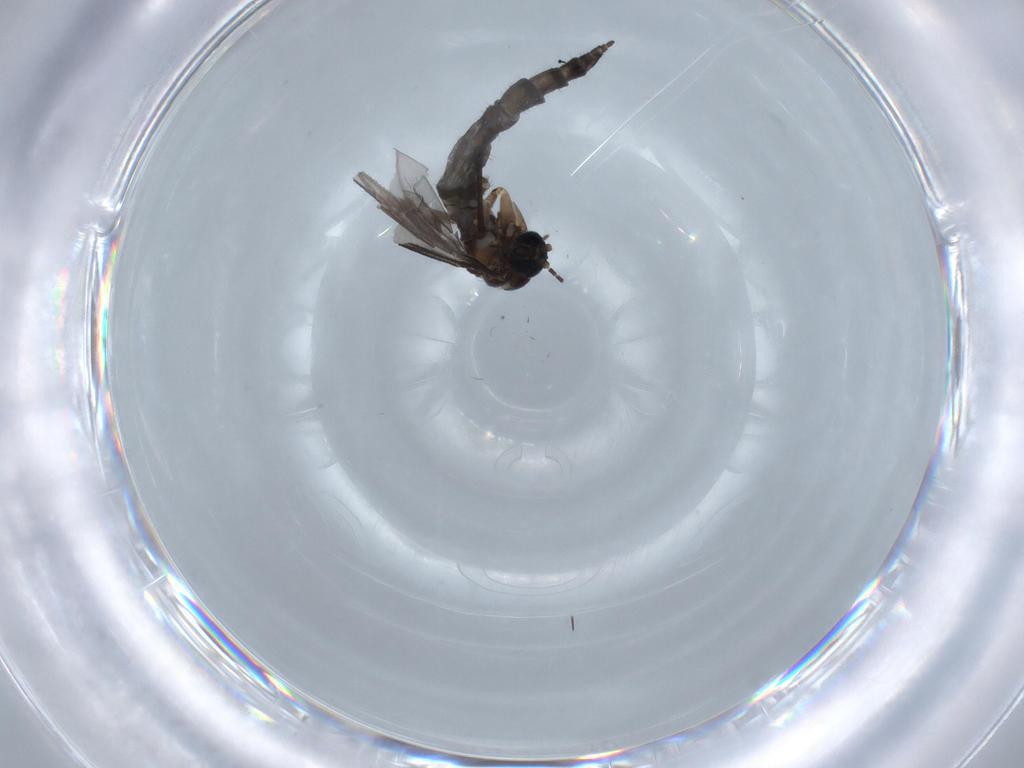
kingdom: Animalia
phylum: Arthropoda
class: Insecta
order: Diptera
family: Sciaridae
